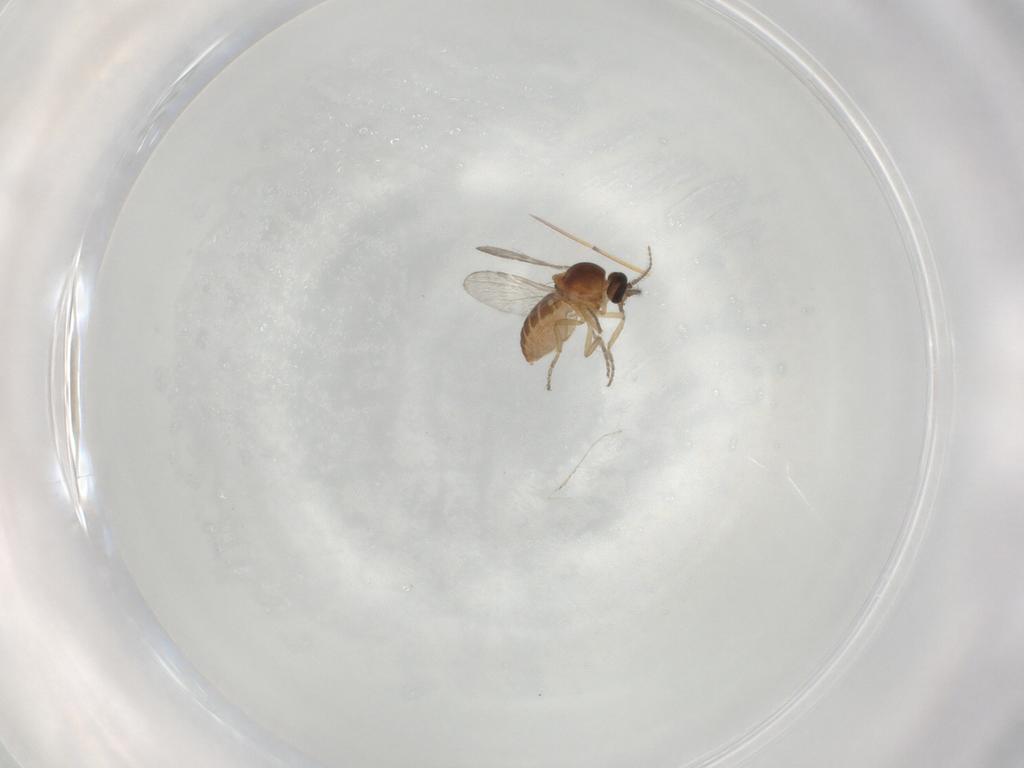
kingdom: Animalia
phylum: Arthropoda
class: Insecta
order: Diptera
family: Ceratopogonidae
